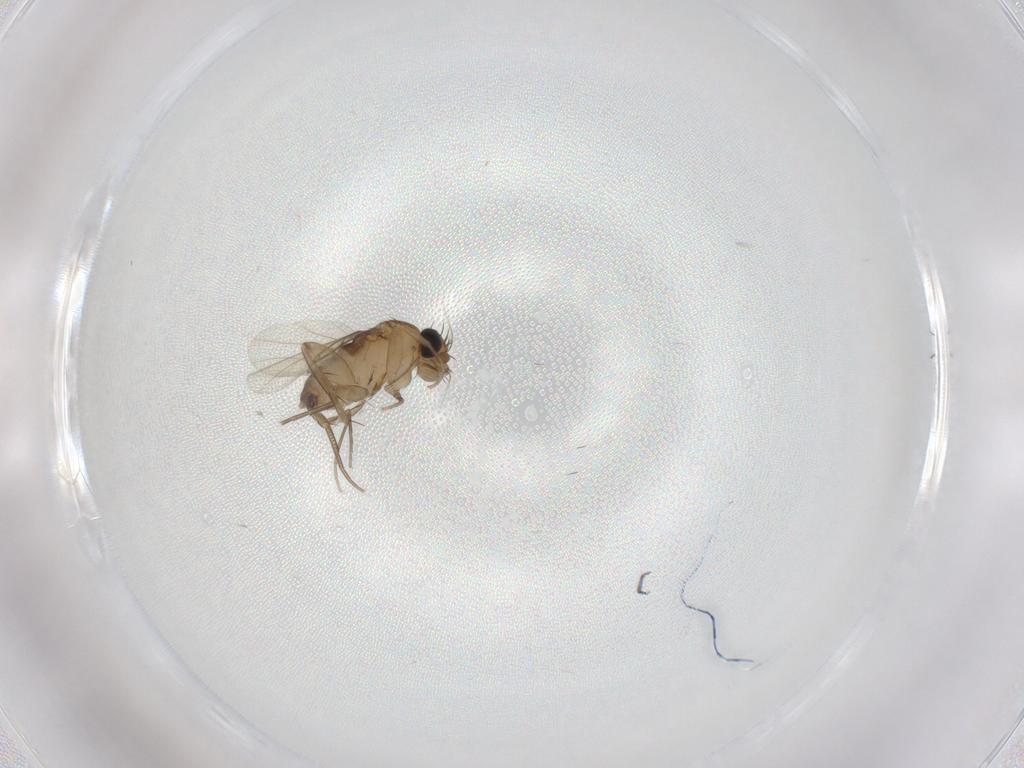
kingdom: Animalia
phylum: Arthropoda
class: Insecta
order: Diptera
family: Phoridae
